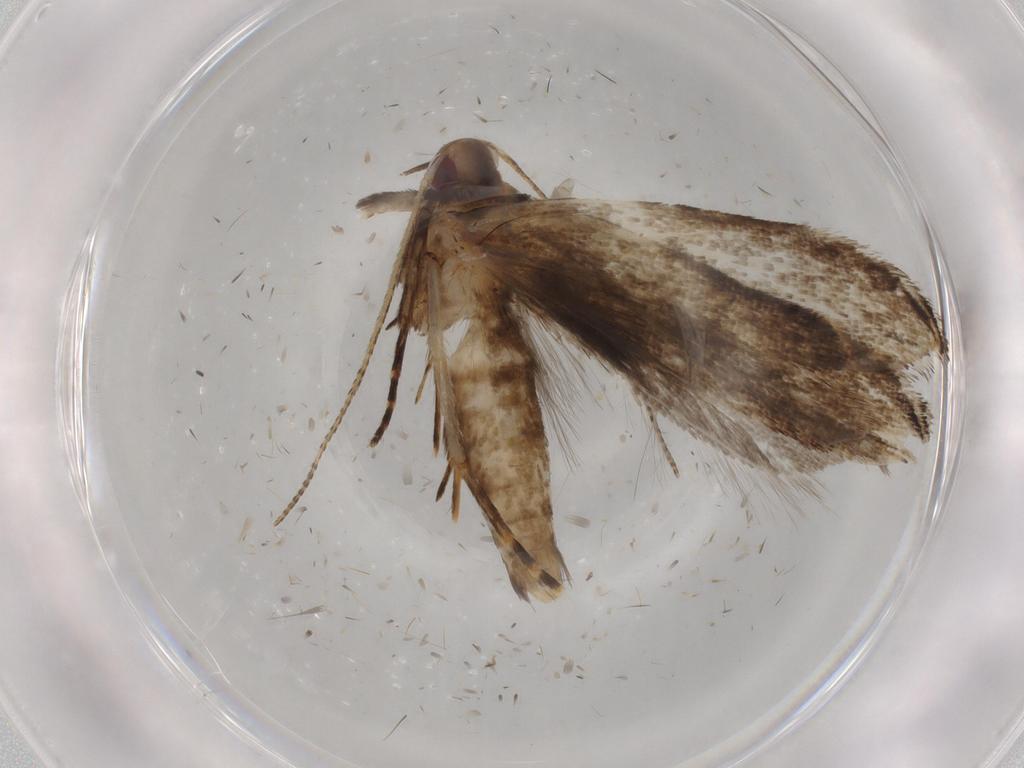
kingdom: Animalia
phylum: Arthropoda
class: Insecta
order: Lepidoptera
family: Gelechiidae
